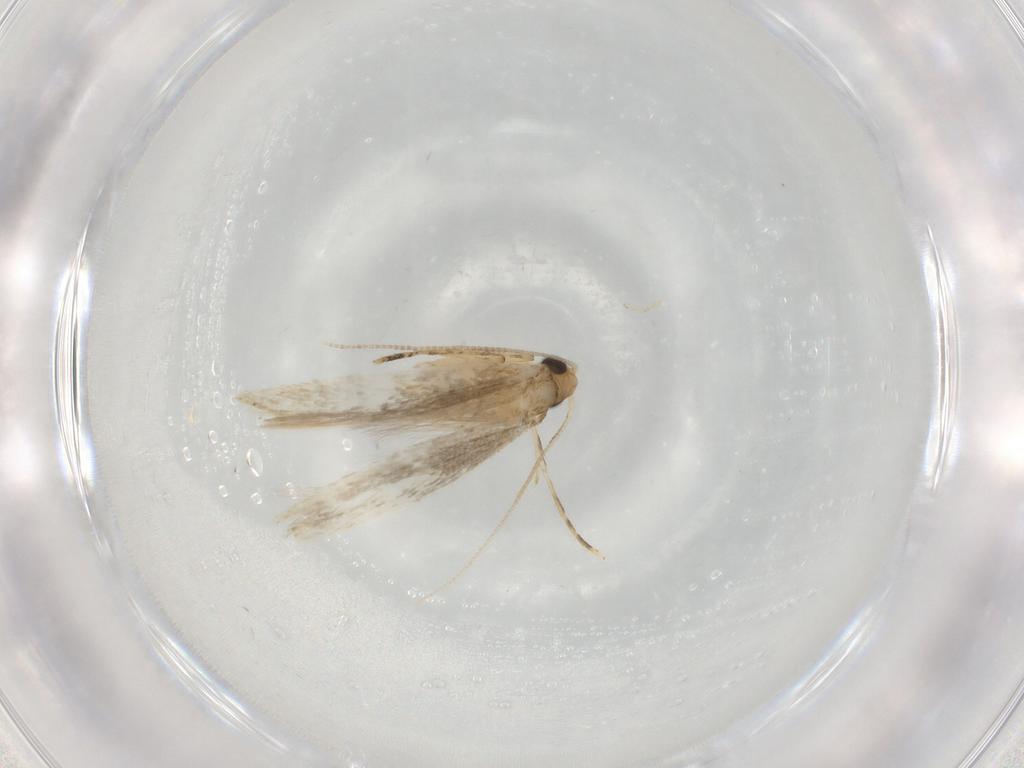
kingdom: Animalia
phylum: Arthropoda
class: Insecta
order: Lepidoptera
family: Tineidae
